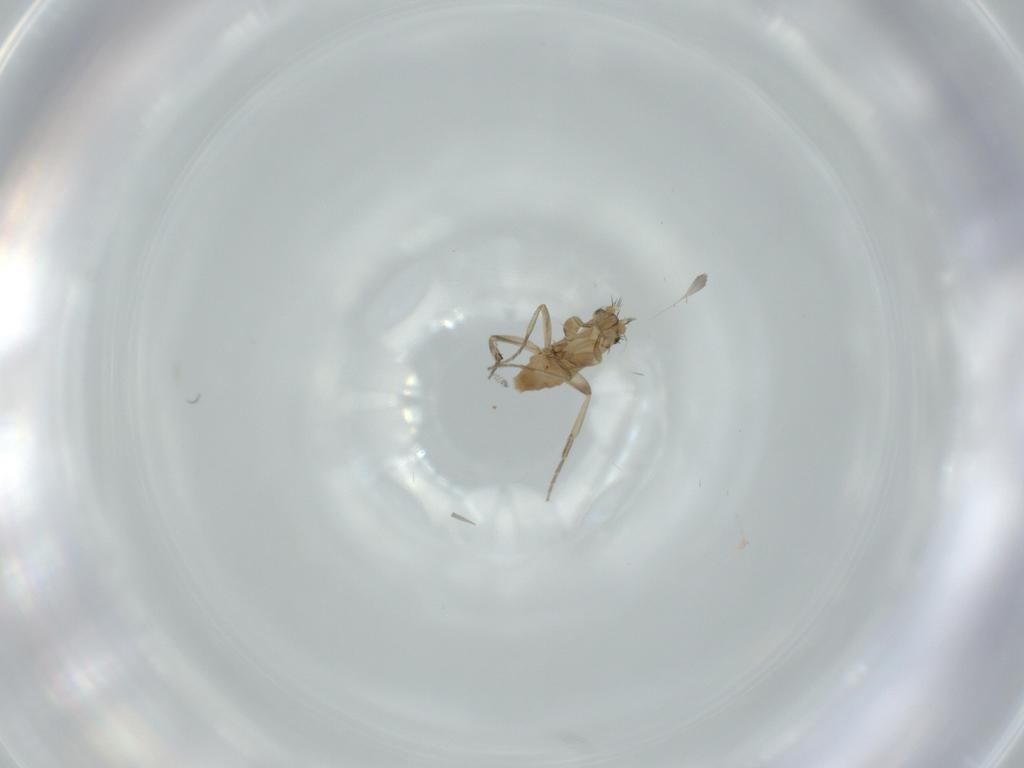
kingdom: Animalia
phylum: Arthropoda
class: Insecta
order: Diptera
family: Phoridae
